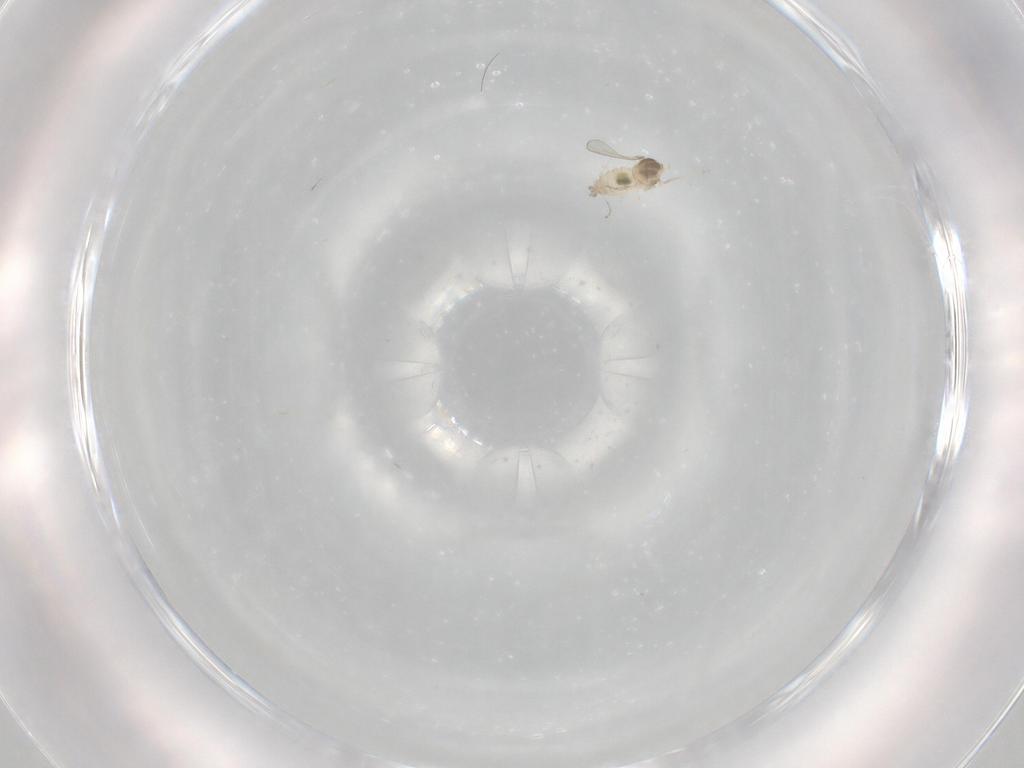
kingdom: Animalia
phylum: Arthropoda
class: Insecta
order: Diptera
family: Cecidomyiidae
